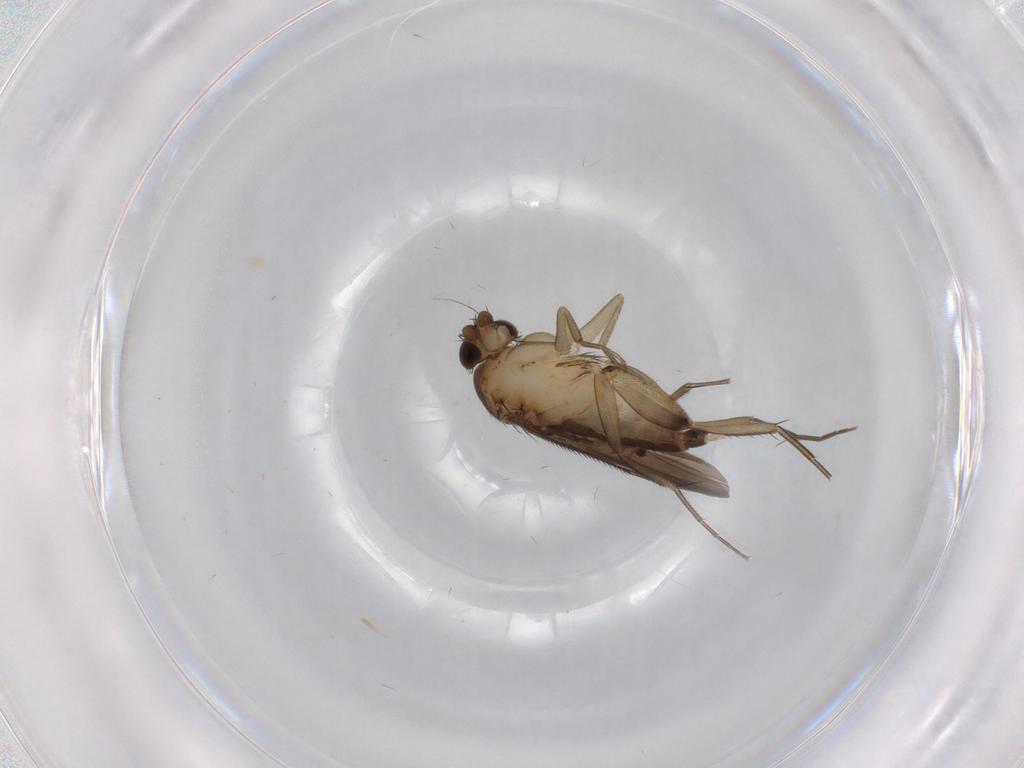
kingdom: Animalia
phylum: Arthropoda
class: Insecta
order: Diptera
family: Phoridae
